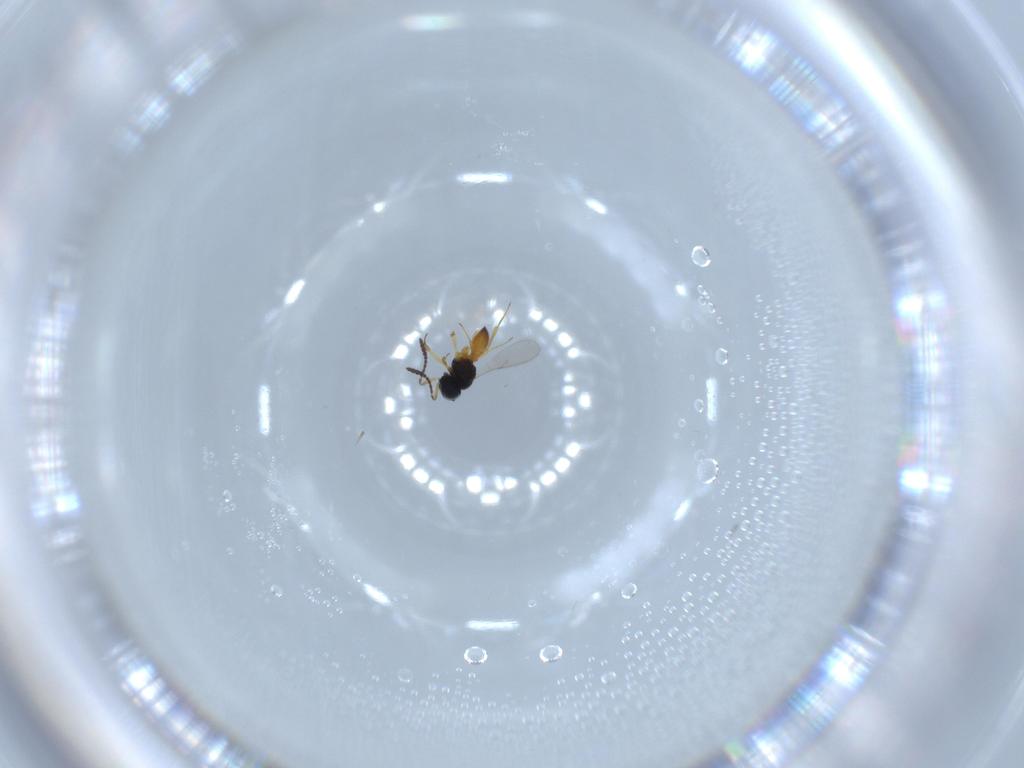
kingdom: Animalia
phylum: Arthropoda
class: Insecta
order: Hymenoptera
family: Scelionidae
